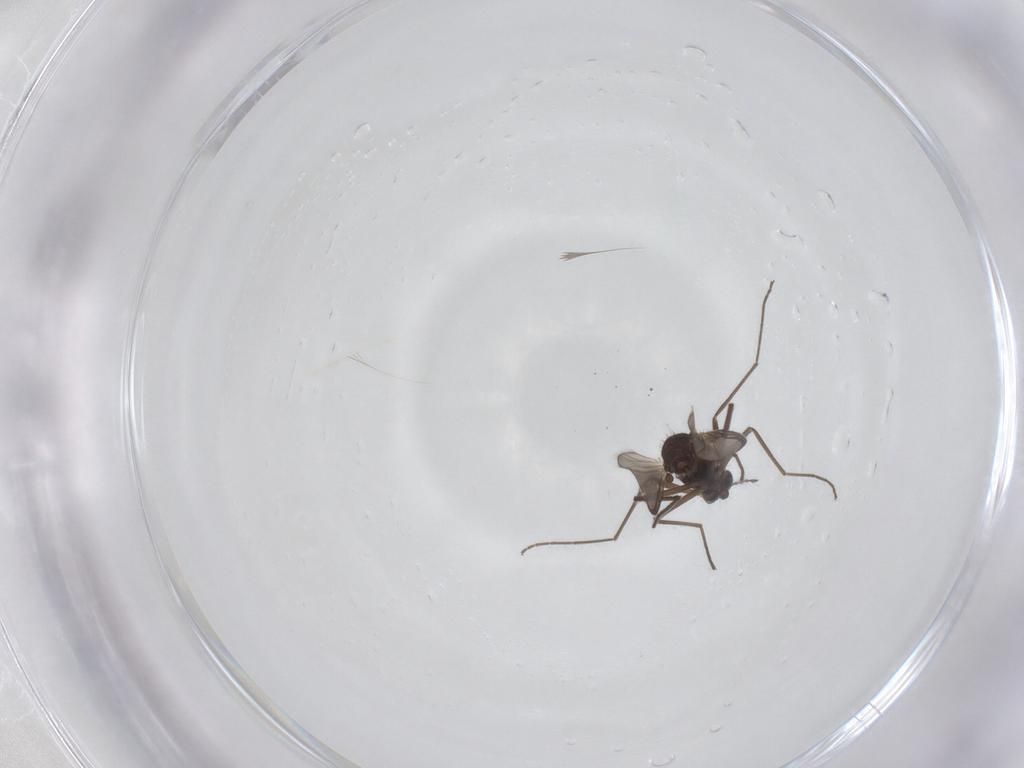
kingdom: Animalia
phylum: Arthropoda
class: Insecta
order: Diptera
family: Chironomidae
